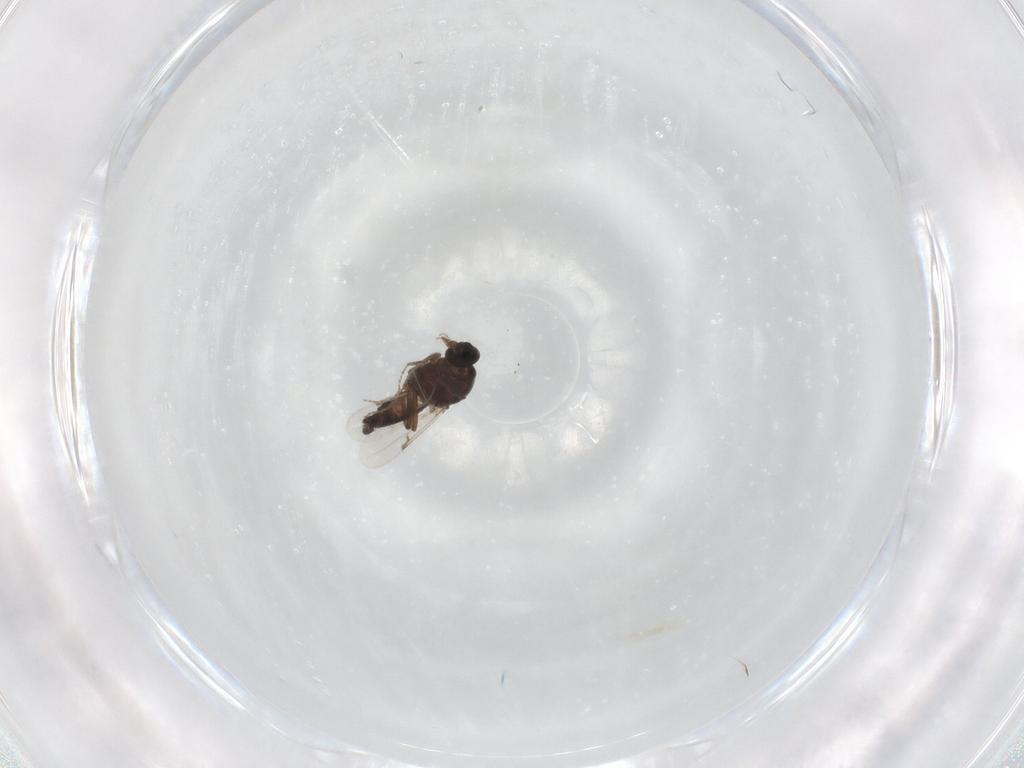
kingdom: Animalia
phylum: Arthropoda
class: Insecta
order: Diptera
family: Ceratopogonidae
